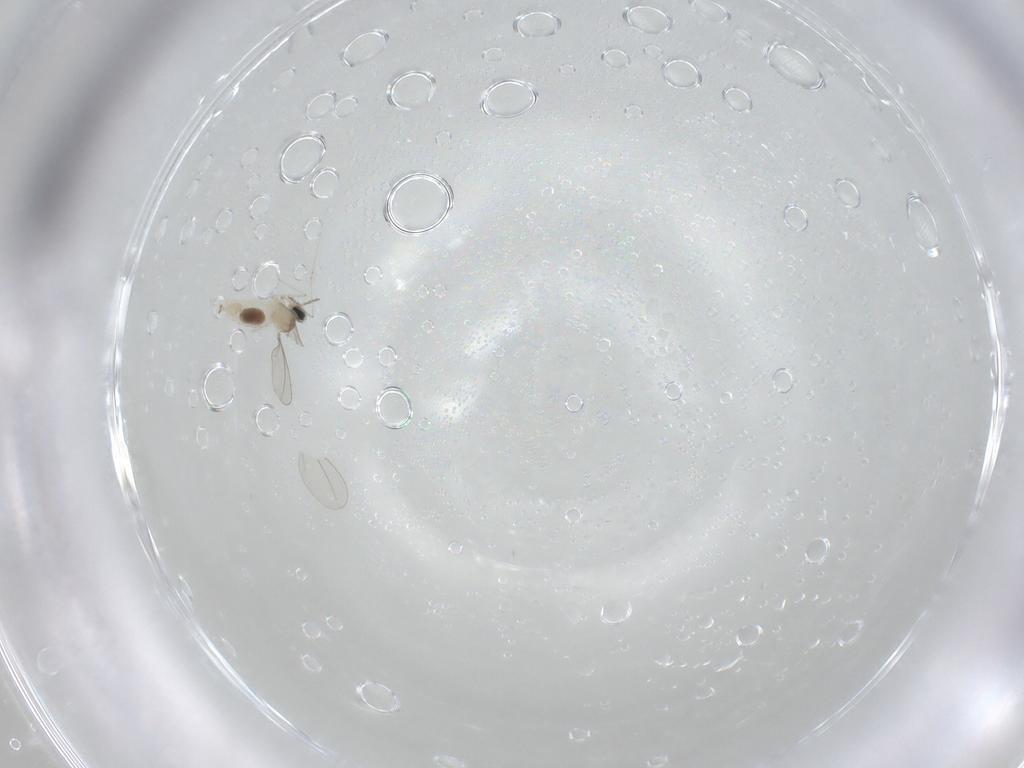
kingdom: Animalia
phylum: Arthropoda
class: Insecta
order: Diptera
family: Cecidomyiidae
